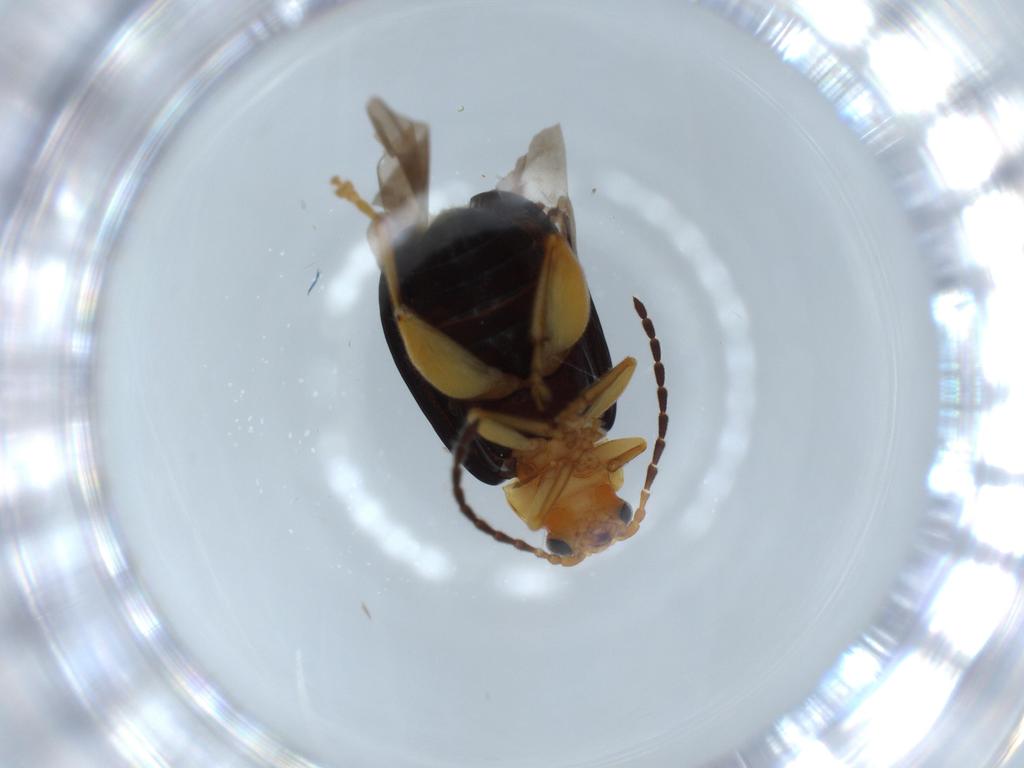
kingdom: Animalia
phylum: Arthropoda
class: Insecta
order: Coleoptera
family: Chrysomelidae
